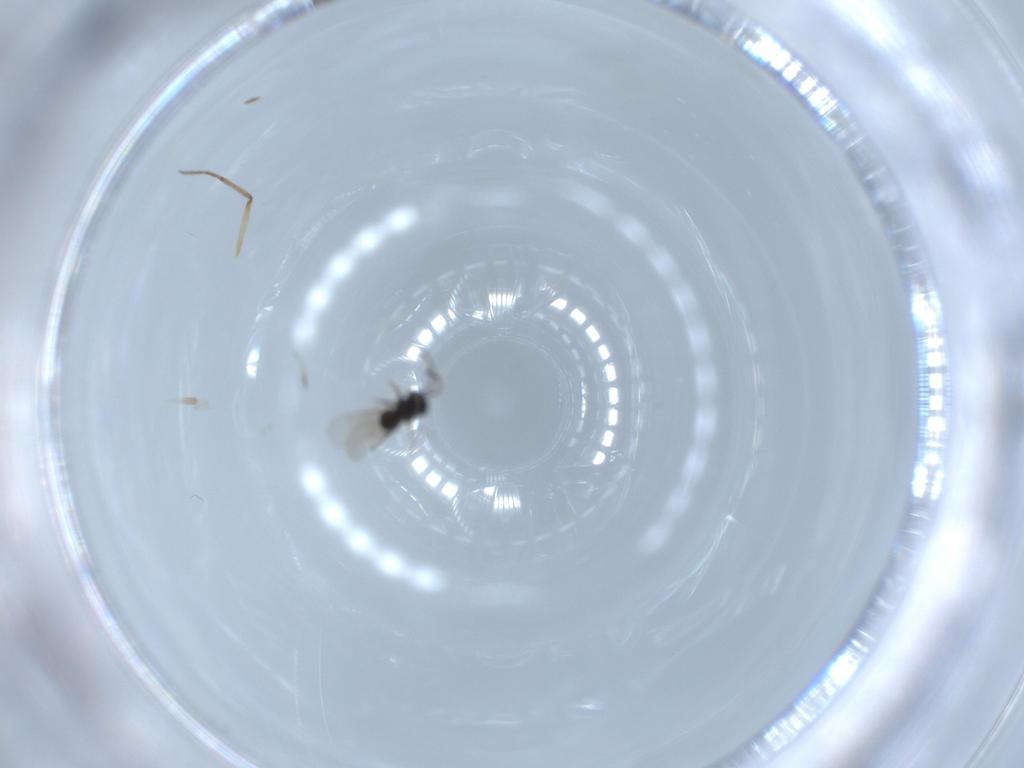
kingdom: Animalia
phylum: Arthropoda
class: Insecta
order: Hymenoptera
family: Scelionidae
